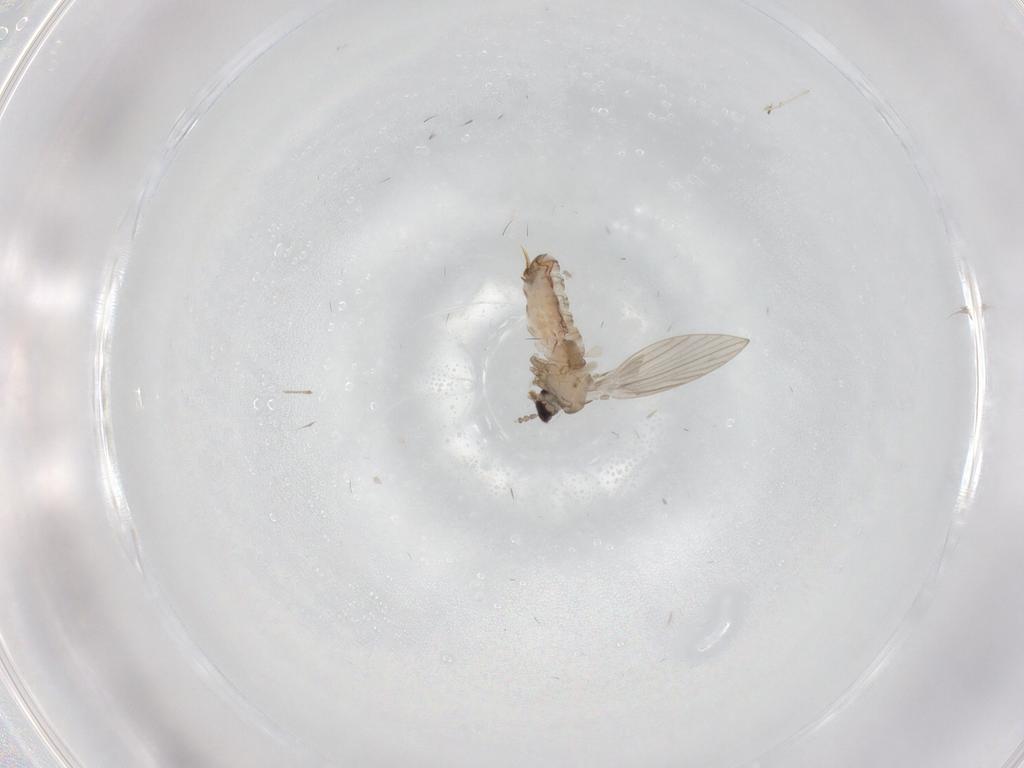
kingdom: Animalia
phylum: Arthropoda
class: Insecta
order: Diptera
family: Psychodidae
